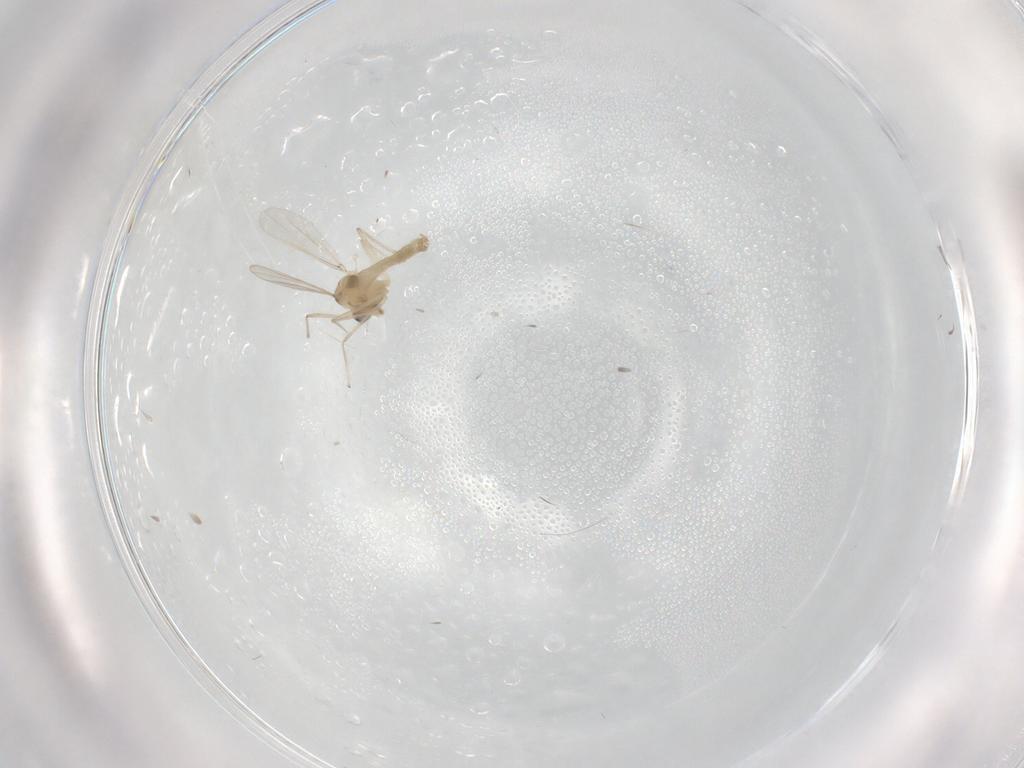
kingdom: Animalia
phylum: Arthropoda
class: Insecta
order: Diptera
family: Chironomidae
